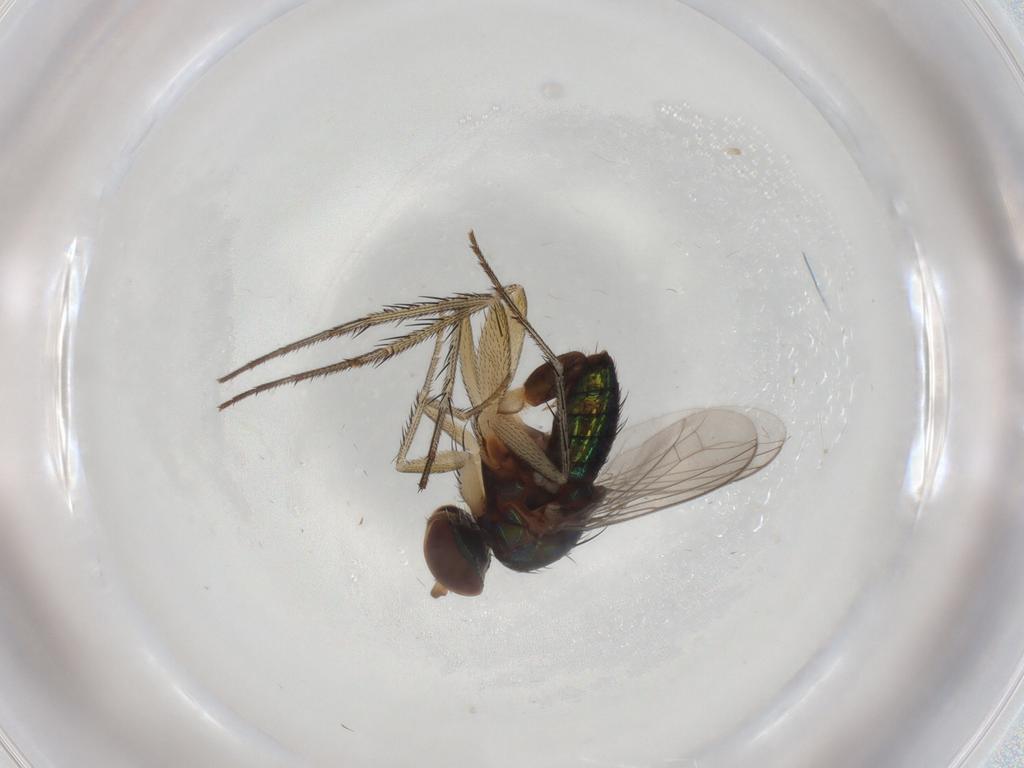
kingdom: Animalia
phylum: Arthropoda
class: Insecta
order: Diptera
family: Dolichopodidae
